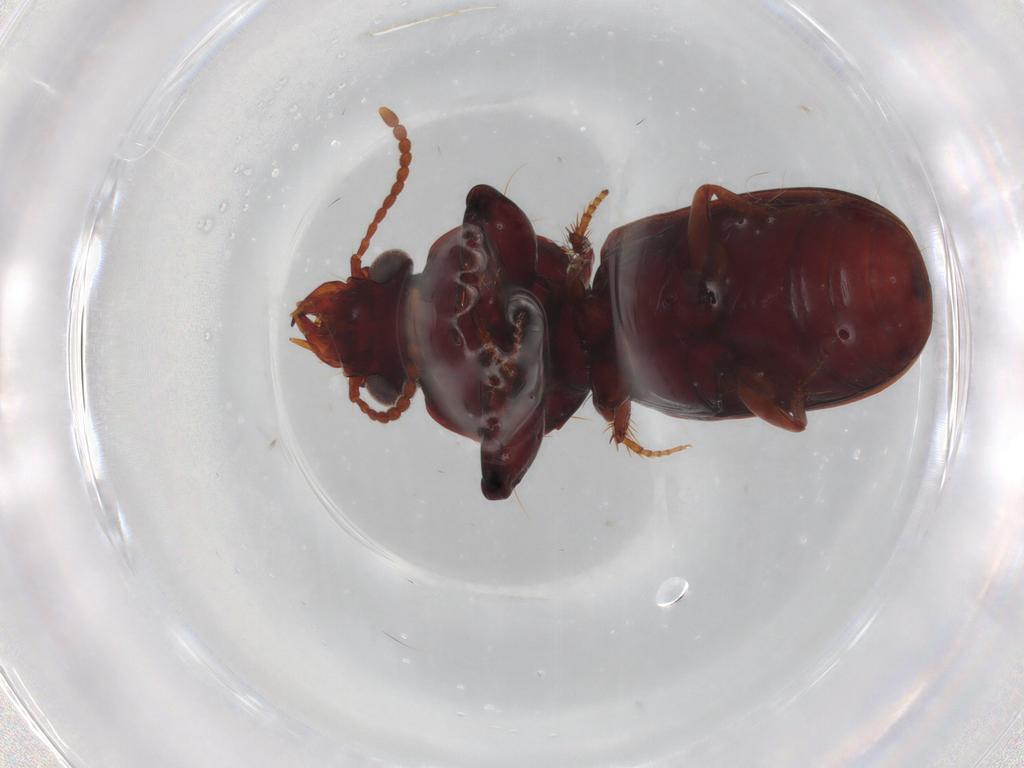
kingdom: Animalia
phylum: Arthropoda
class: Insecta
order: Coleoptera
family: Carabidae
